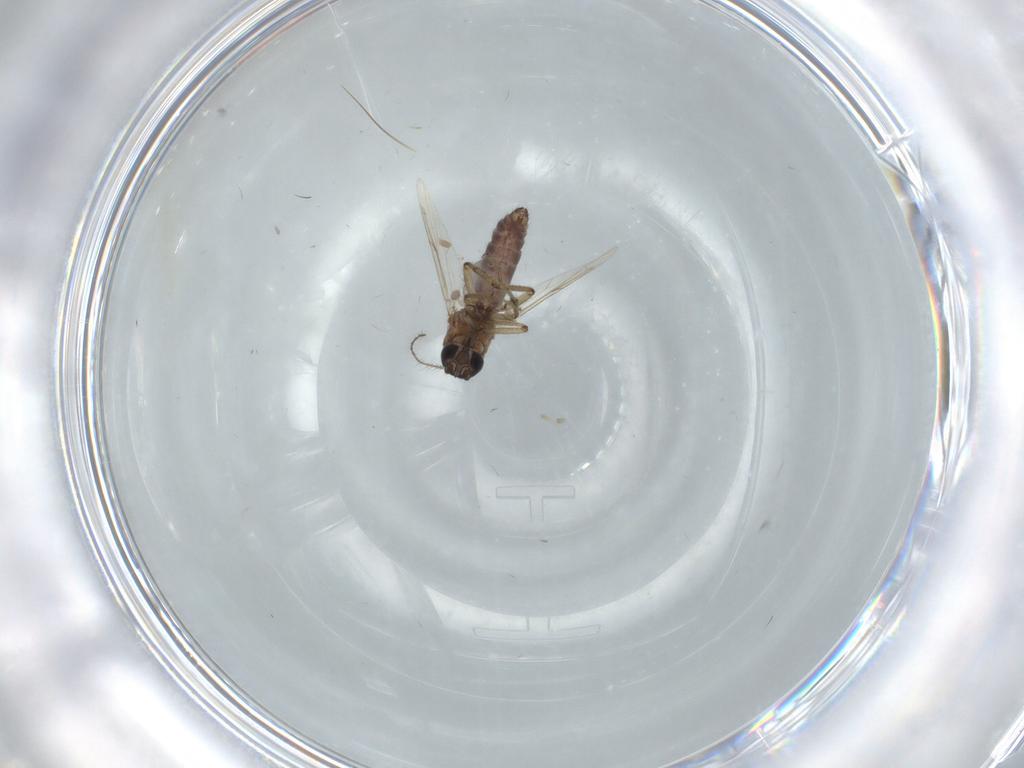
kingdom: Animalia
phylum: Arthropoda
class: Insecta
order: Diptera
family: Ceratopogonidae
